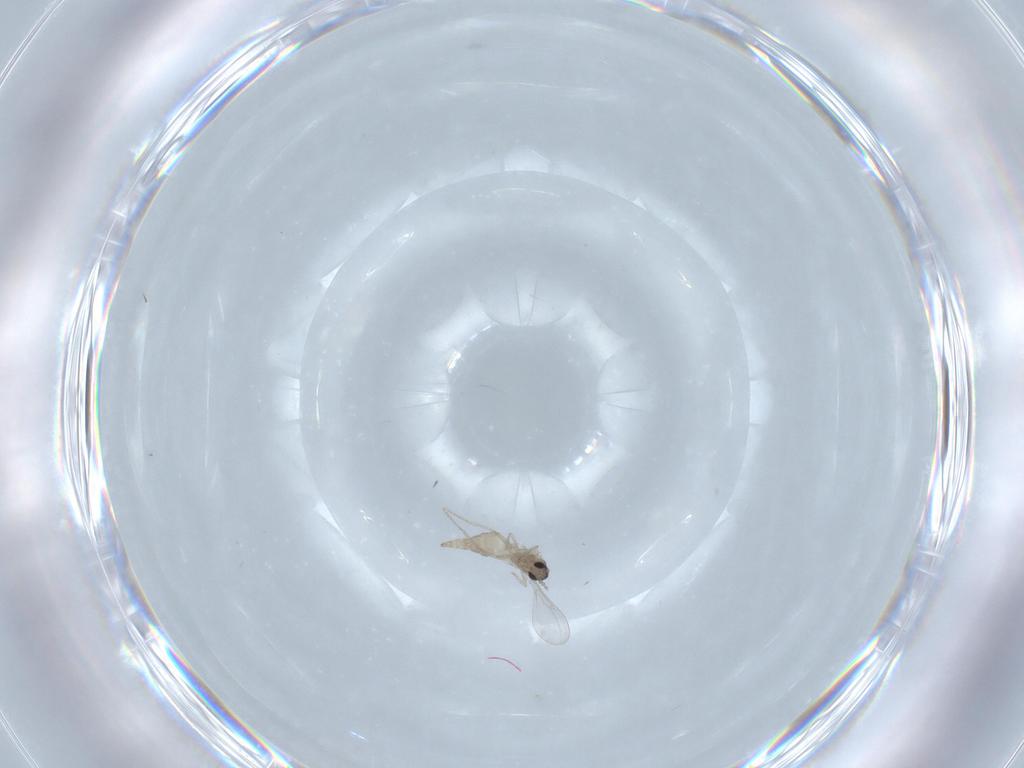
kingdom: Animalia
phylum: Arthropoda
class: Insecta
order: Diptera
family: Cecidomyiidae
